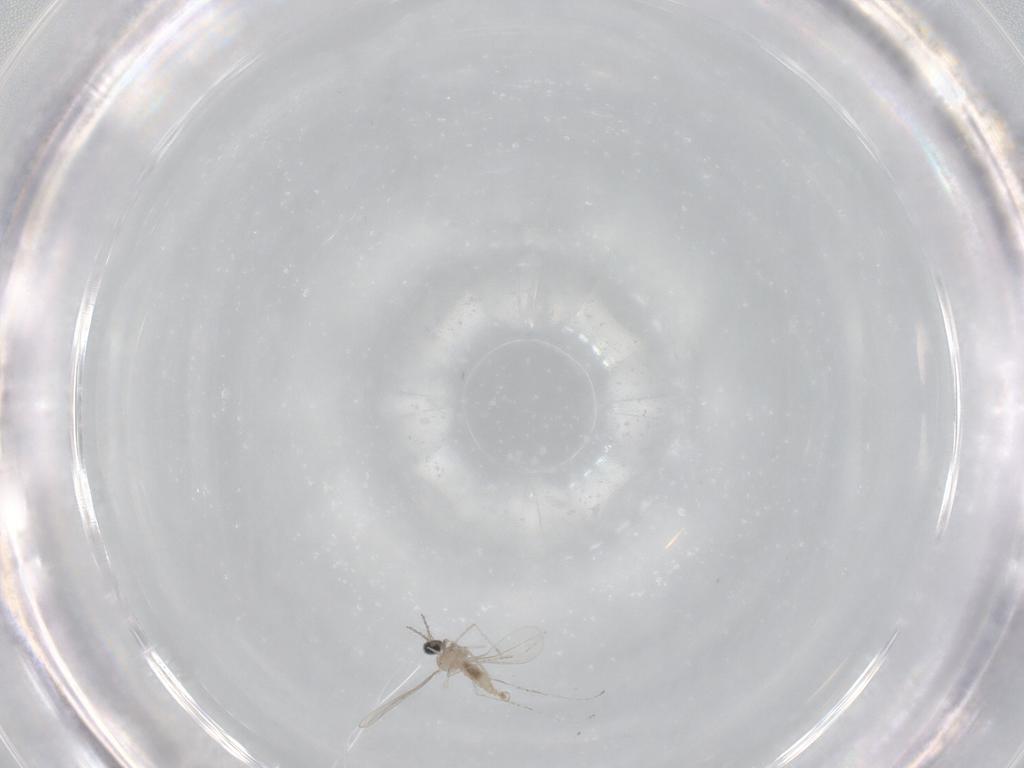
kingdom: Animalia
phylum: Arthropoda
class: Insecta
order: Diptera
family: Cecidomyiidae
